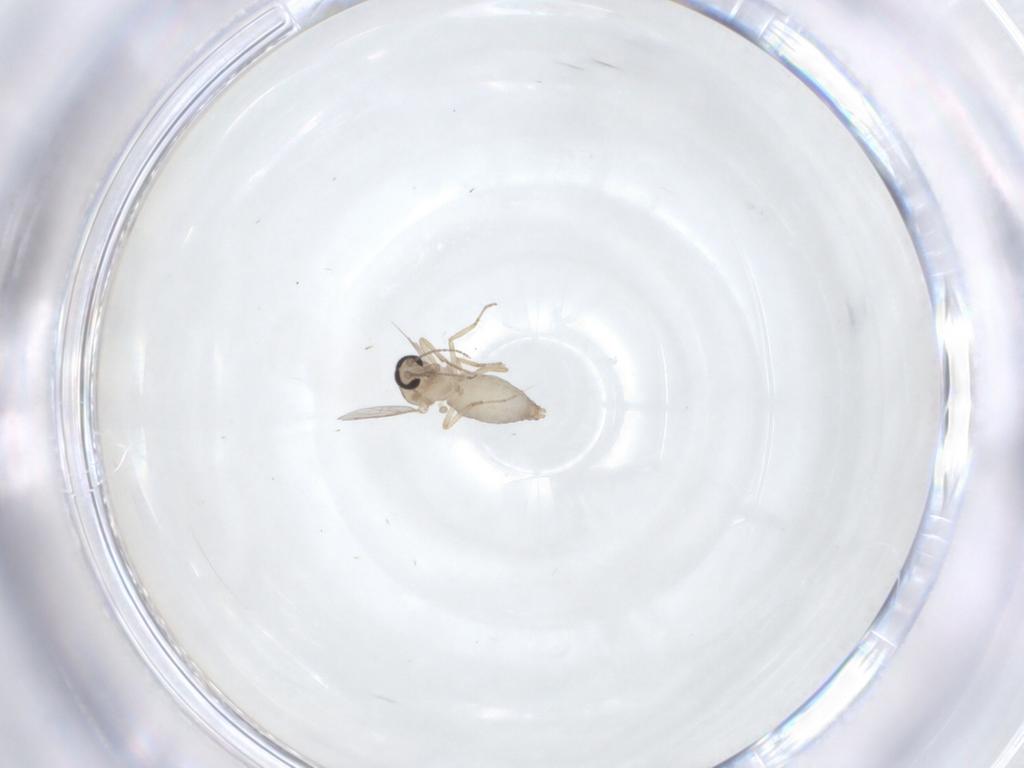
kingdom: Animalia
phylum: Arthropoda
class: Insecta
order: Diptera
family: Ceratopogonidae
